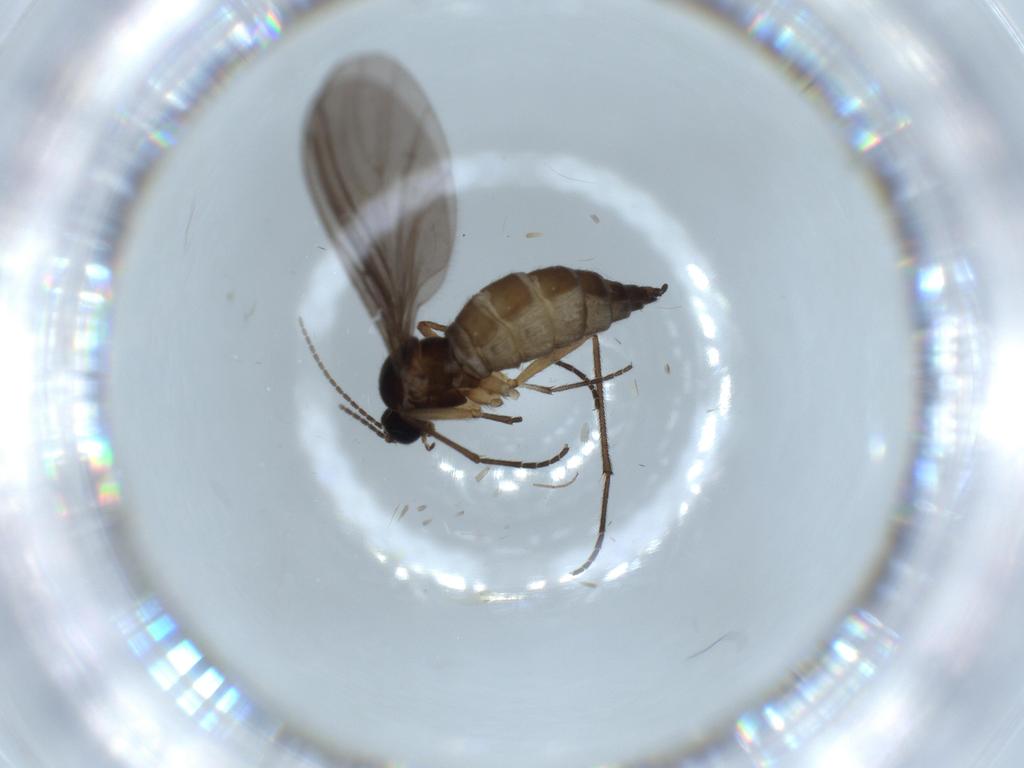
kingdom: Animalia
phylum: Arthropoda
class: Insecta
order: Diptera
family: Sciaridae
